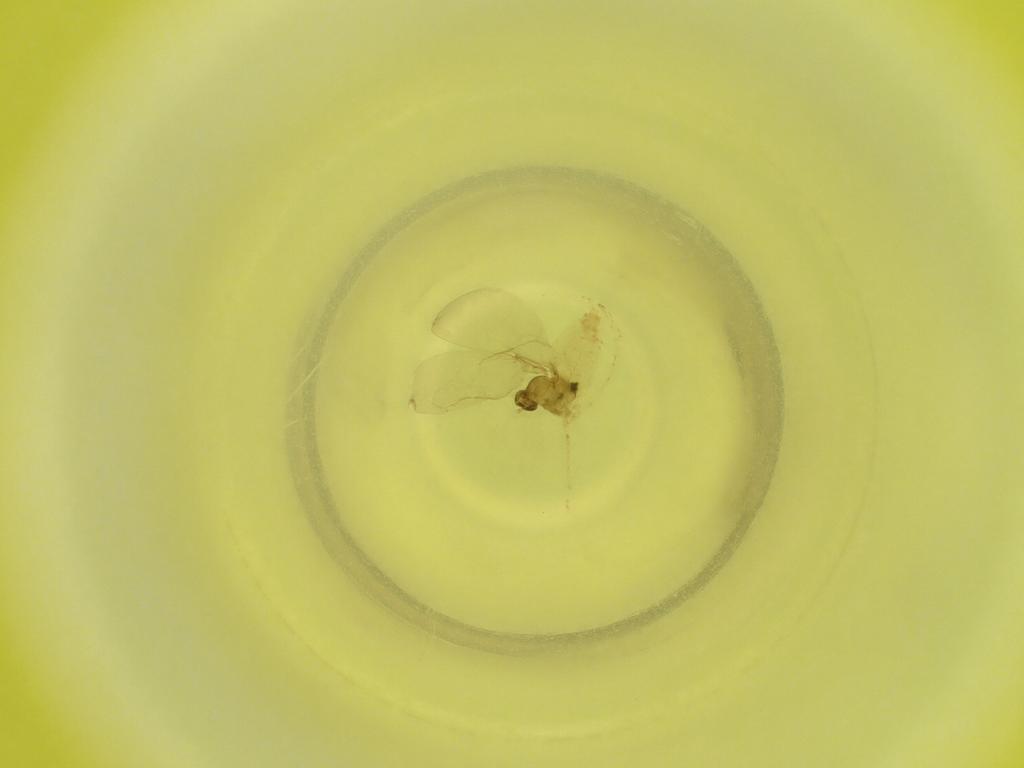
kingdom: Animalia
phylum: Arthropoda
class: Insecta
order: Diptera
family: Cecidomyiidae
